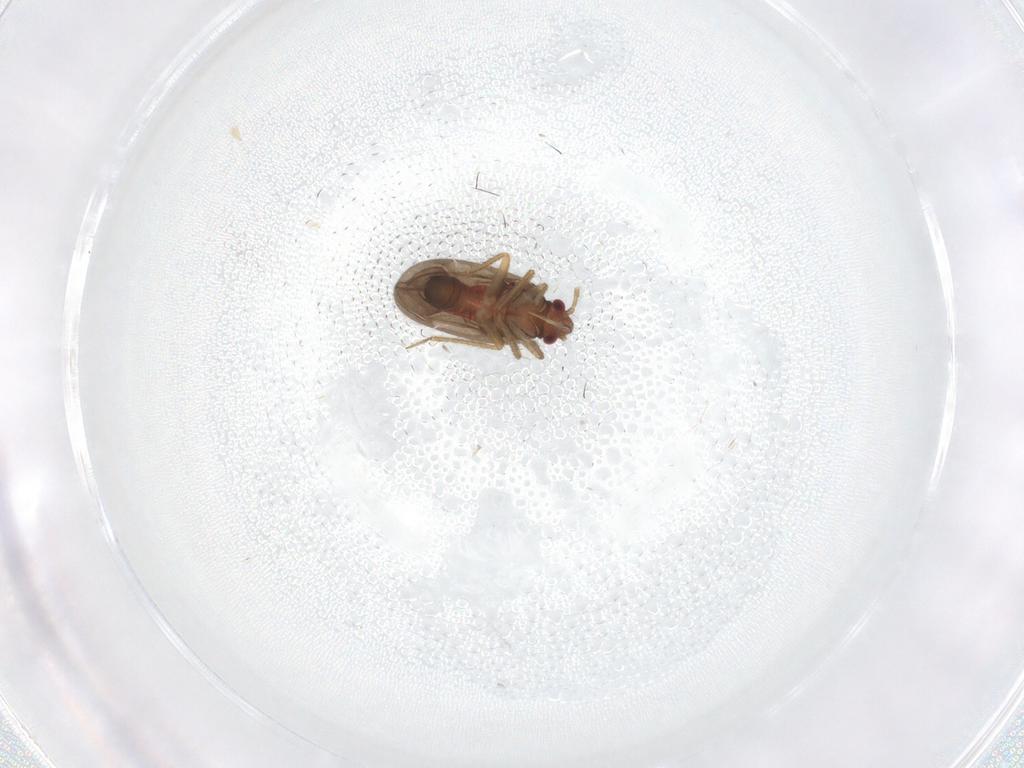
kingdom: Animalia
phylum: Arthropoda
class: Insecta
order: Hemiptera
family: Ceratocombidae
